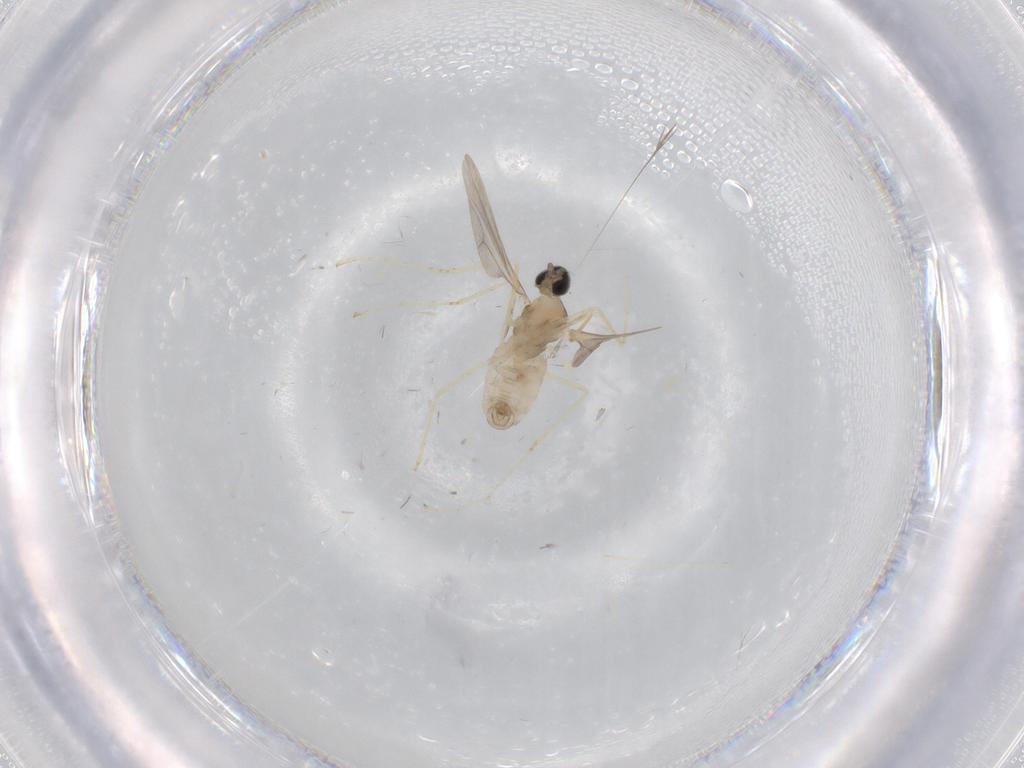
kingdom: Animalia
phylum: Arthropoda
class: Insecta
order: Diptera
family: Cecidomyiidae
